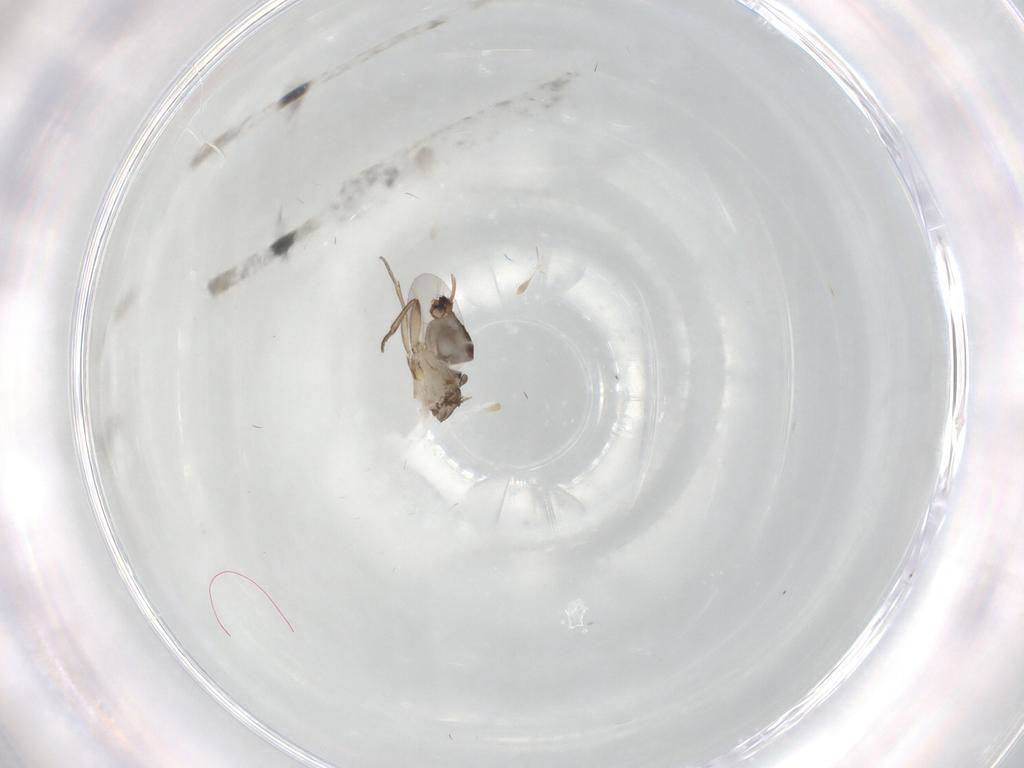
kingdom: Animalia
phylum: Arthropoda
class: Insecta
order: Diptera
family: Phoridae
